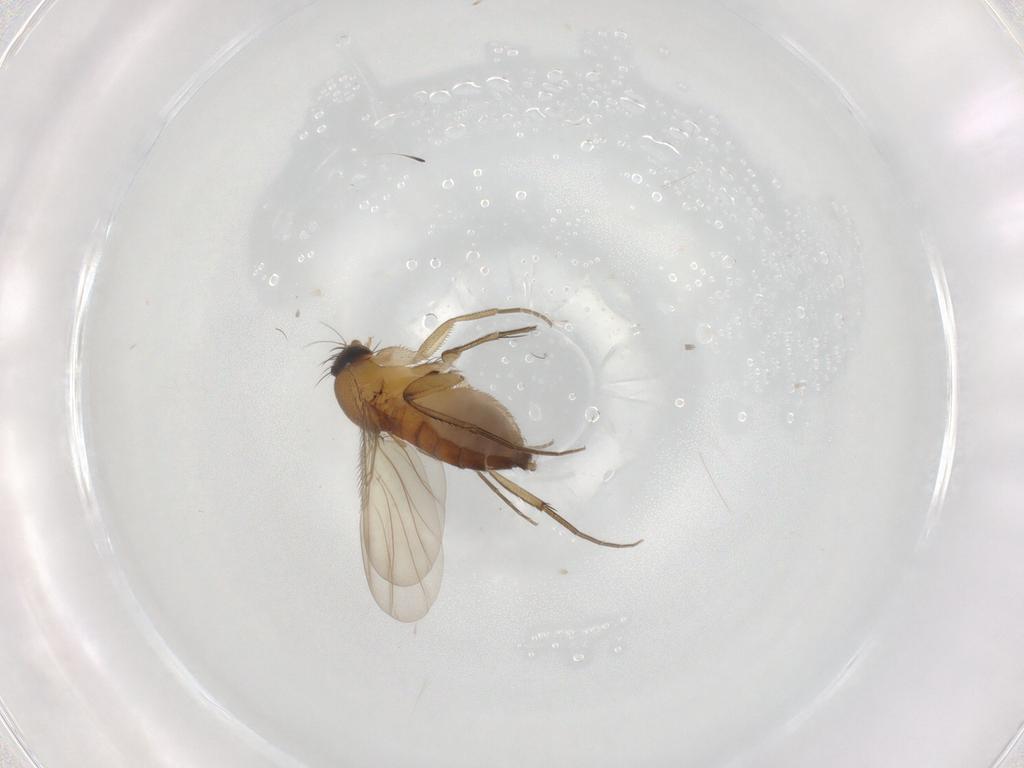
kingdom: Animalia
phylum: Arthropoda
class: Insecta
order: Diptera
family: Phoridae
